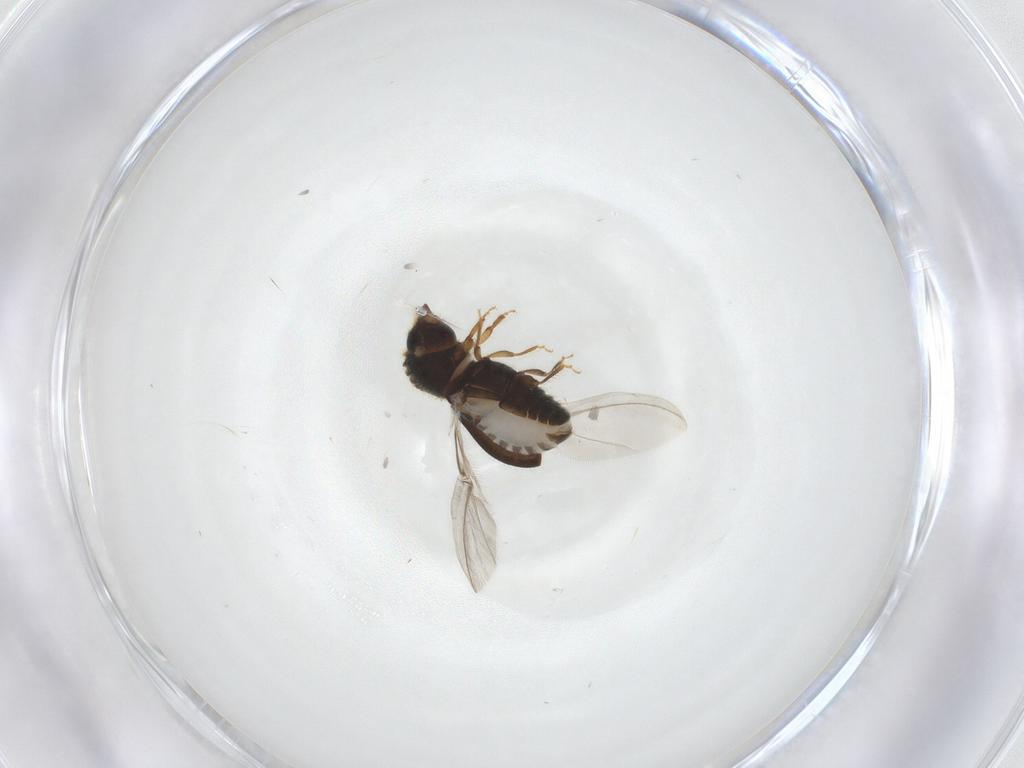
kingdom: Animalia
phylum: Arthropoda
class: Insecta
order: Coleoptera
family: Curculionidae
